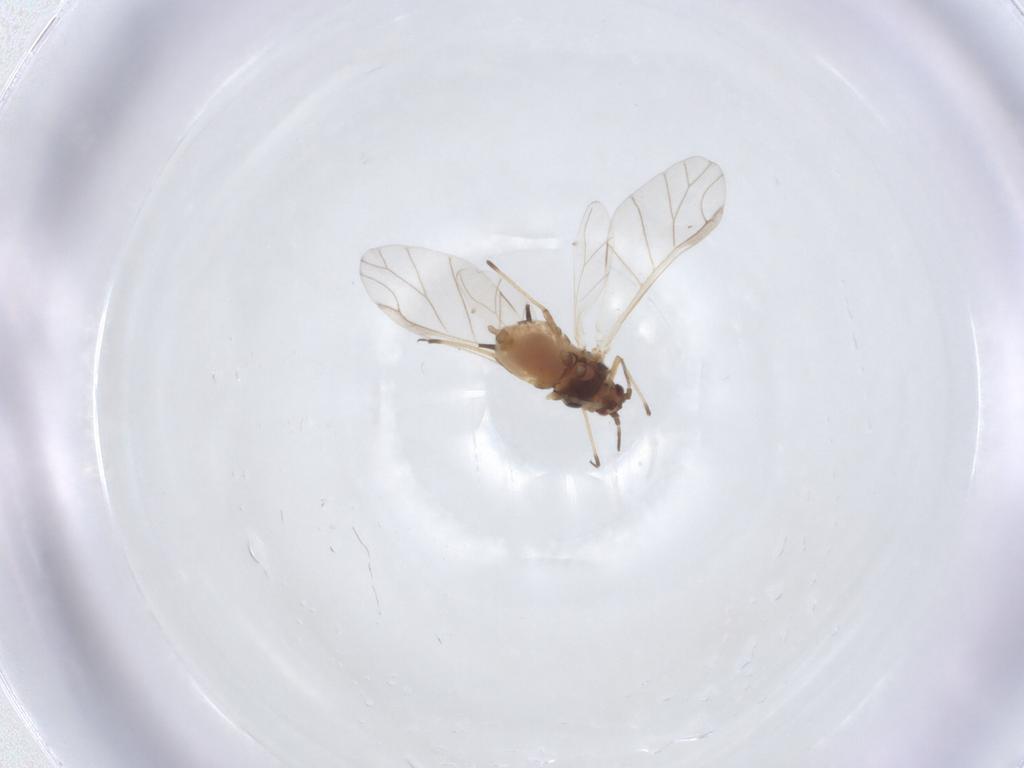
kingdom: Animalia
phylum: Arthropoda
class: Insecta
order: Hemiptera
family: Aphididae
